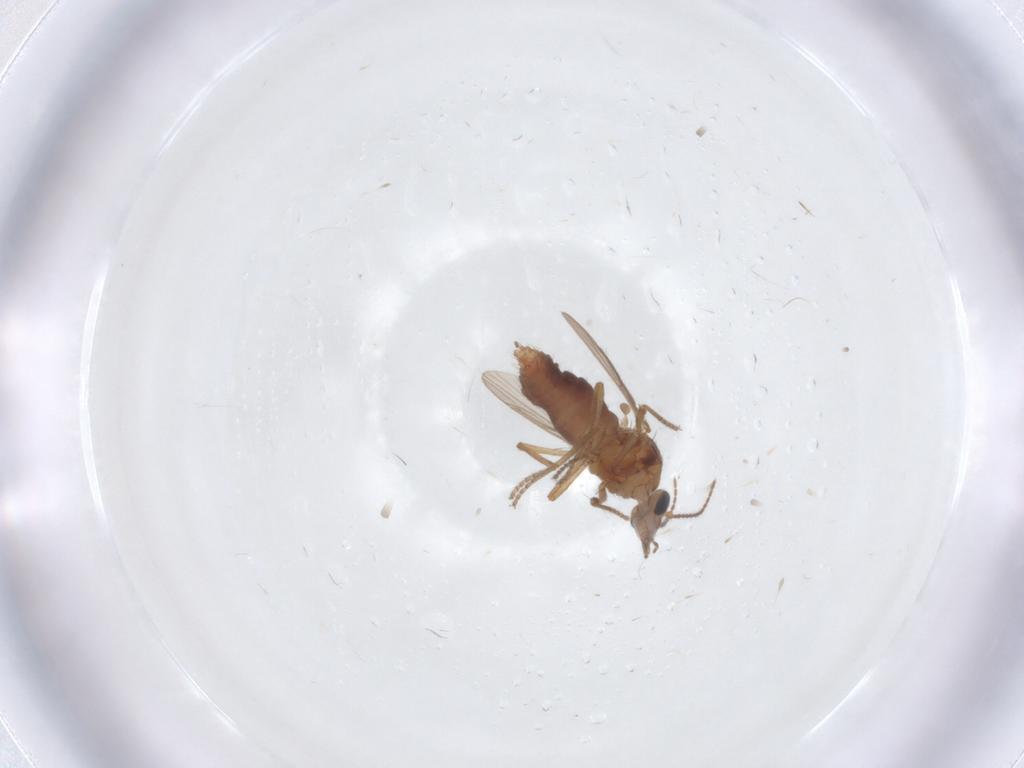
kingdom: Animalia
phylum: Arthropoda
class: Insecta
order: Diptera
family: Ceratopogonidae
